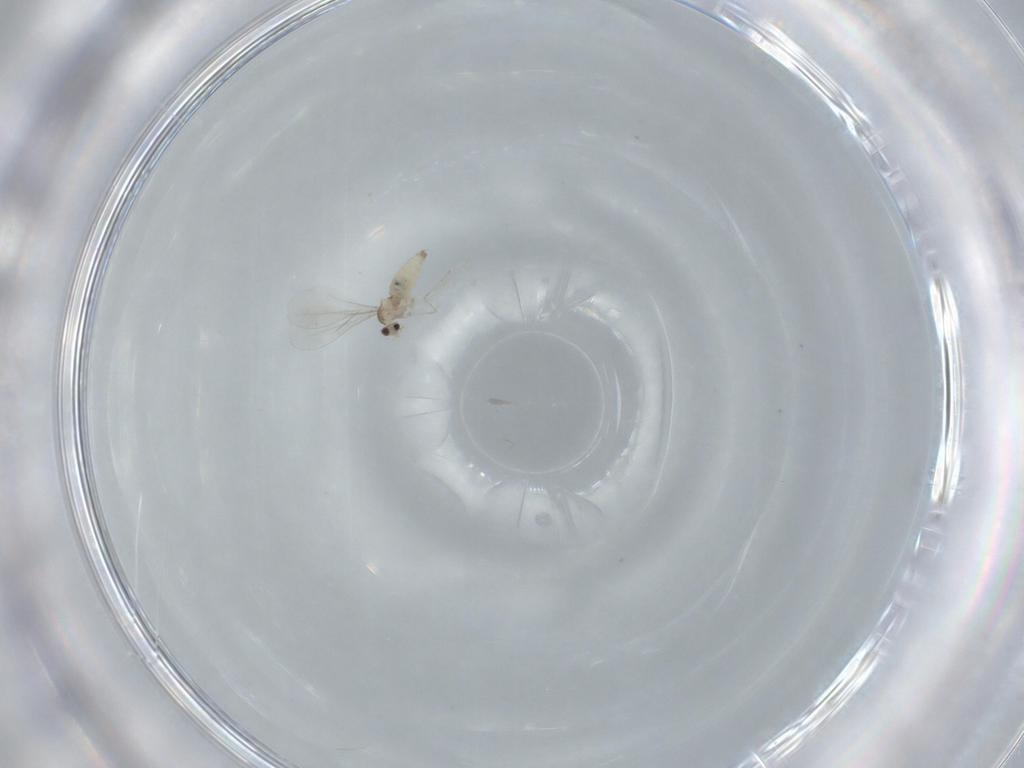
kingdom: Animalia
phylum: Arthropoda
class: Insecta
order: Diptera
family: Cecidomyiidae
